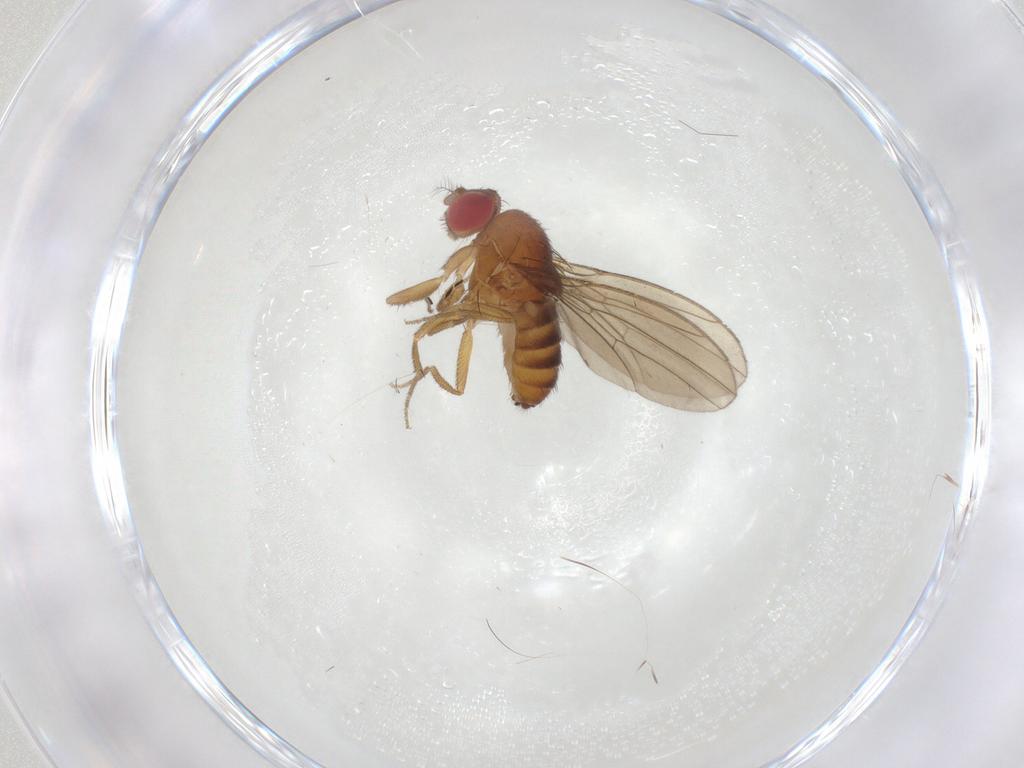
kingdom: Animalia
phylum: Arthropoda
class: Insecta
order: Diptera
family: Drosophilidae
